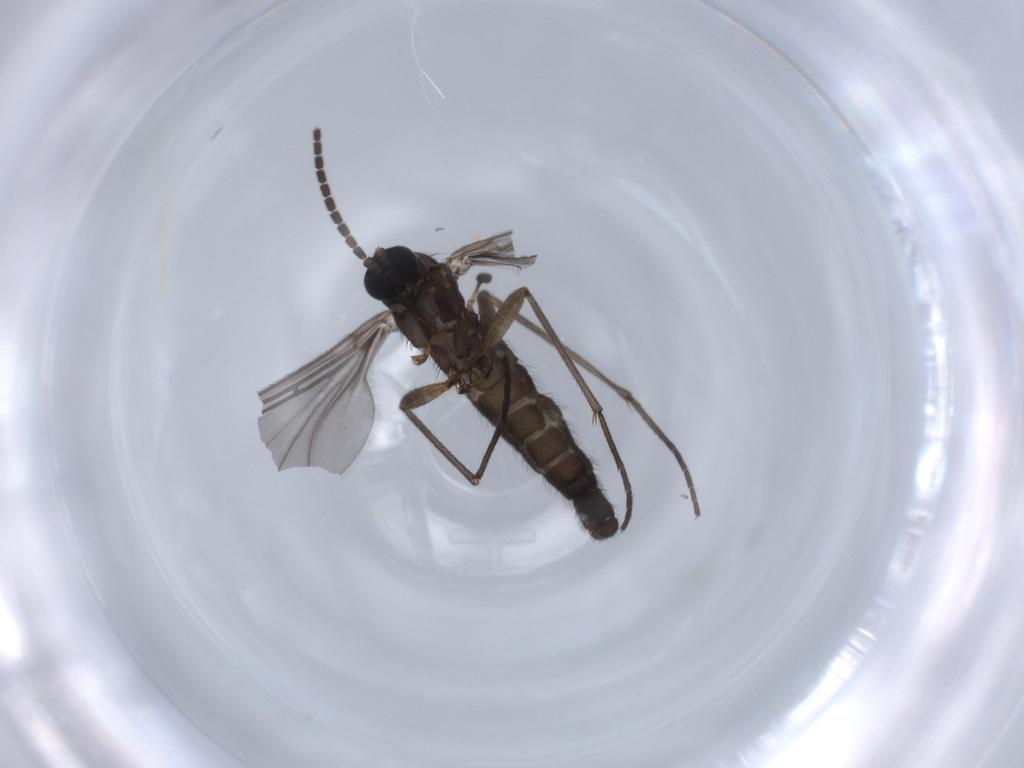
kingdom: Animalia
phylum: Arthropoda
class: Insecta
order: Diptera
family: Sciaridae
